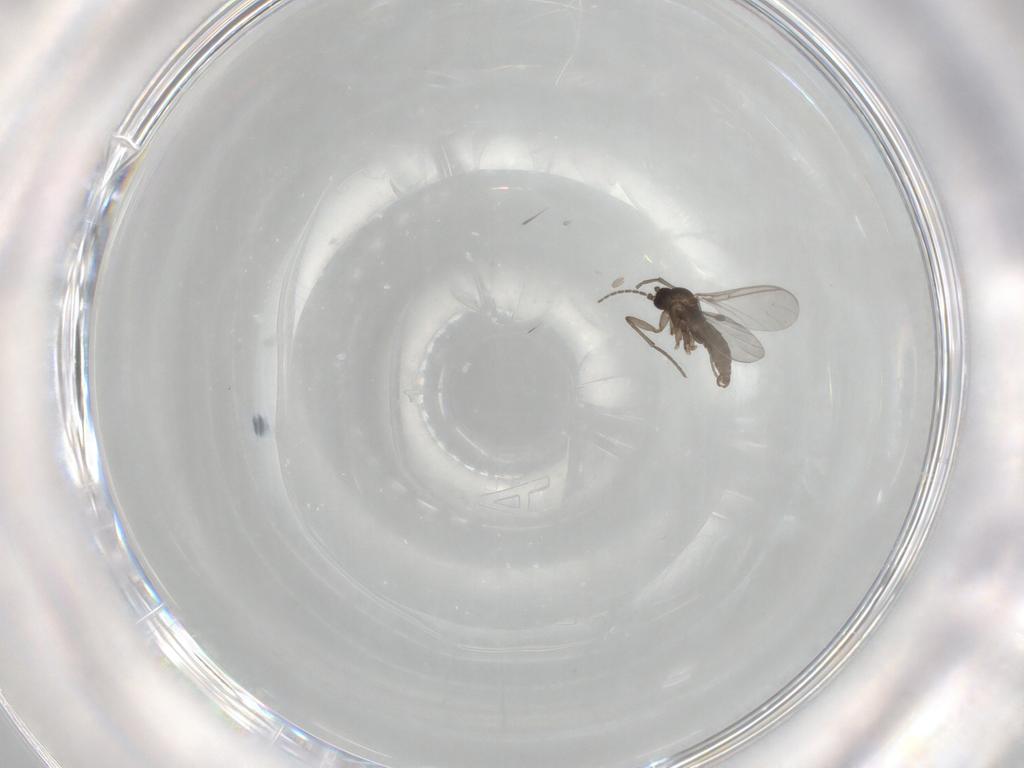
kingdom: Animalia
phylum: Arthropoda
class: Insecta
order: Diptera
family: Sciaridae
